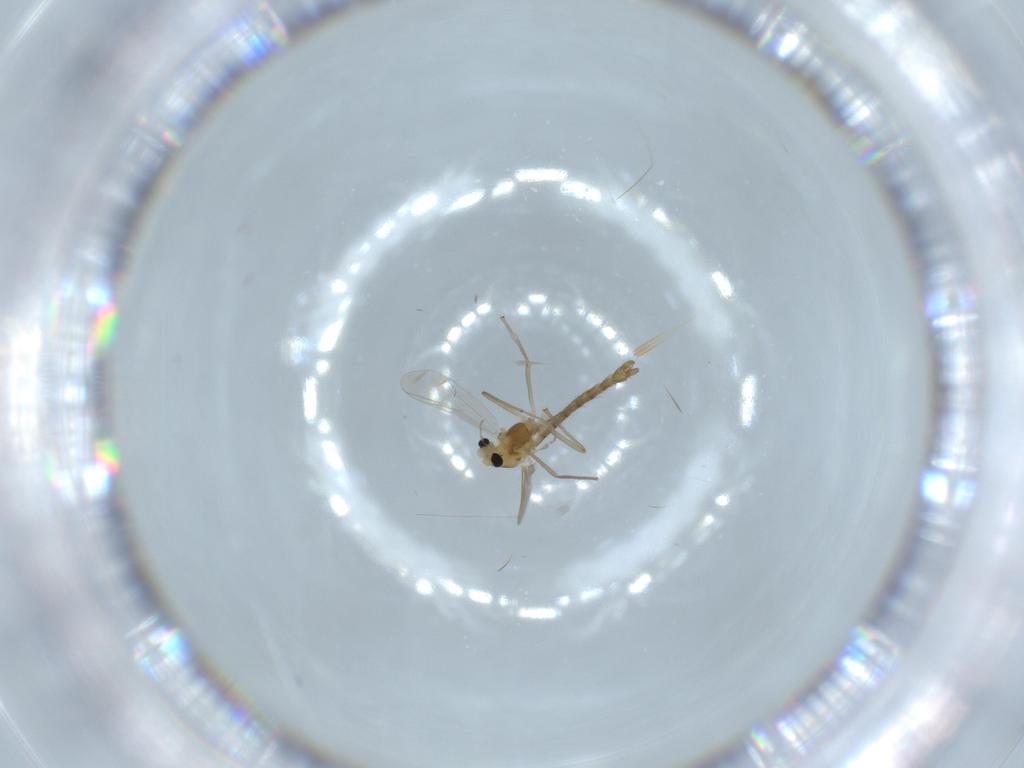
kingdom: Animalia
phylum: Arthropoda
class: Insecta
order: Diptera
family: Chironomidae
